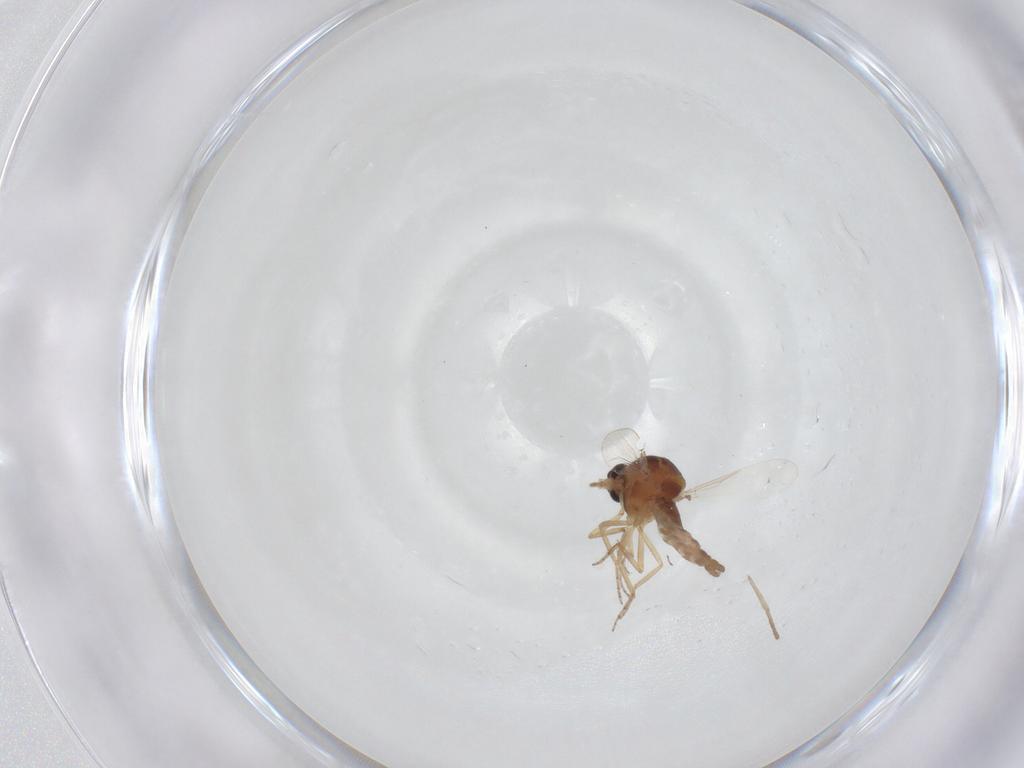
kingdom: Animalia
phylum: Arthropoda
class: Insecta
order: Diptera
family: Ceratopogonidae
